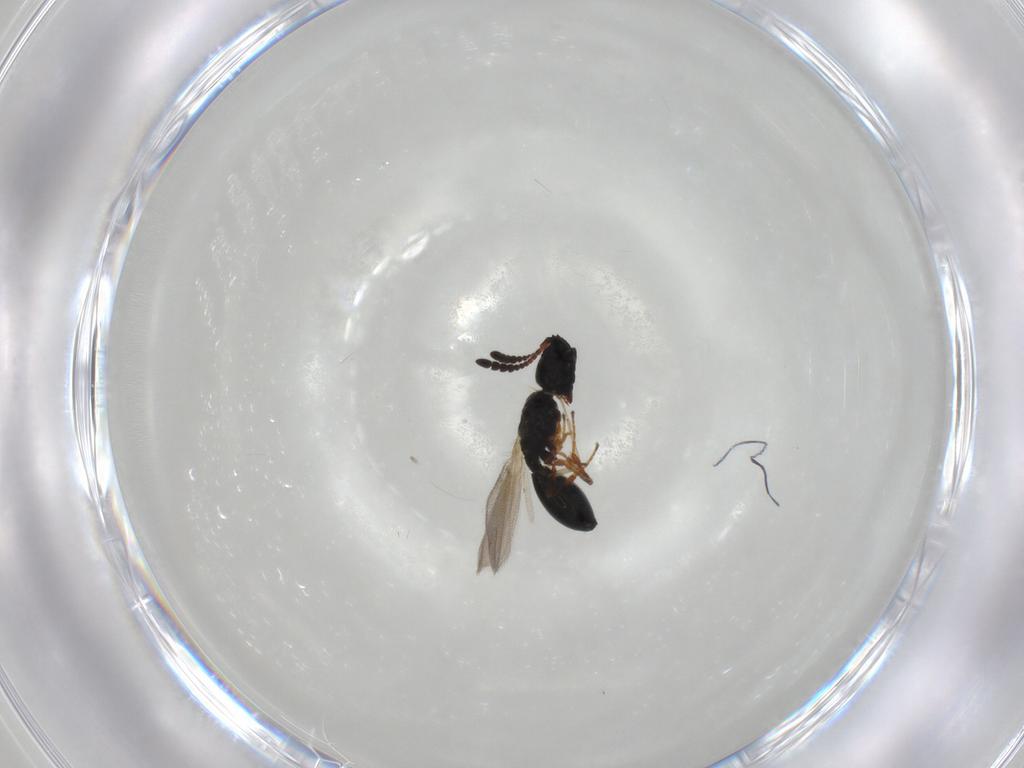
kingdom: Animalia
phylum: Arthropoda
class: Insecta
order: Hymenoptera
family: Diapriidae
